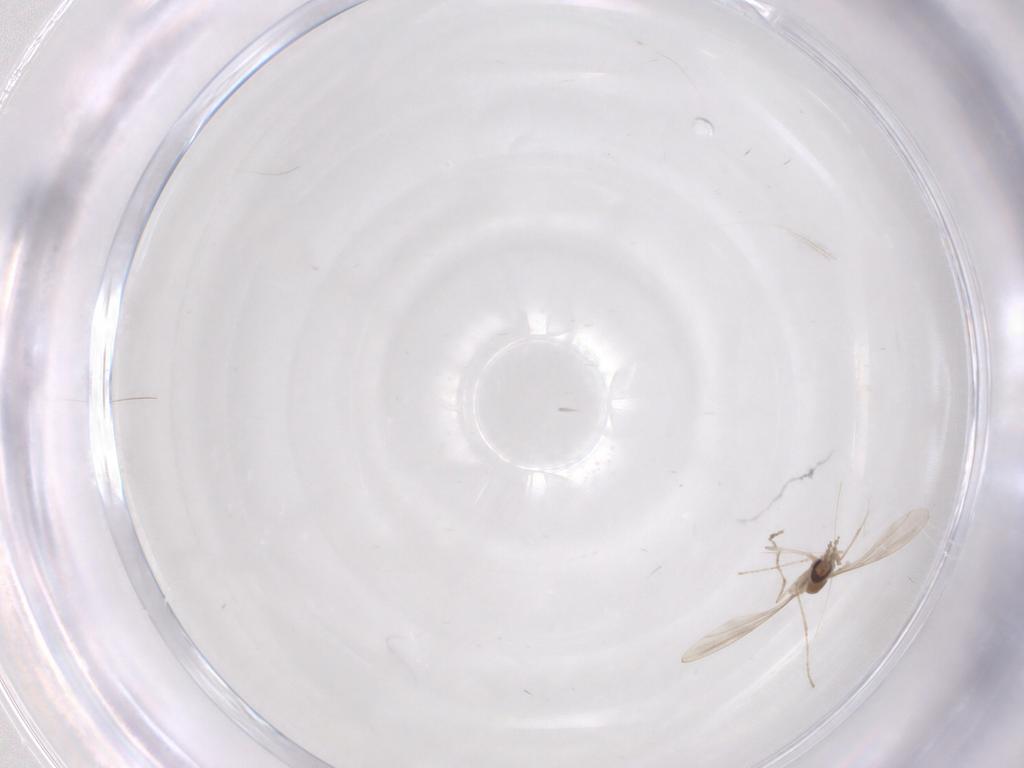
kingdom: Animalia
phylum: Arthropoda
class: Insecta
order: Diptera
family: Cecidomyiidae
